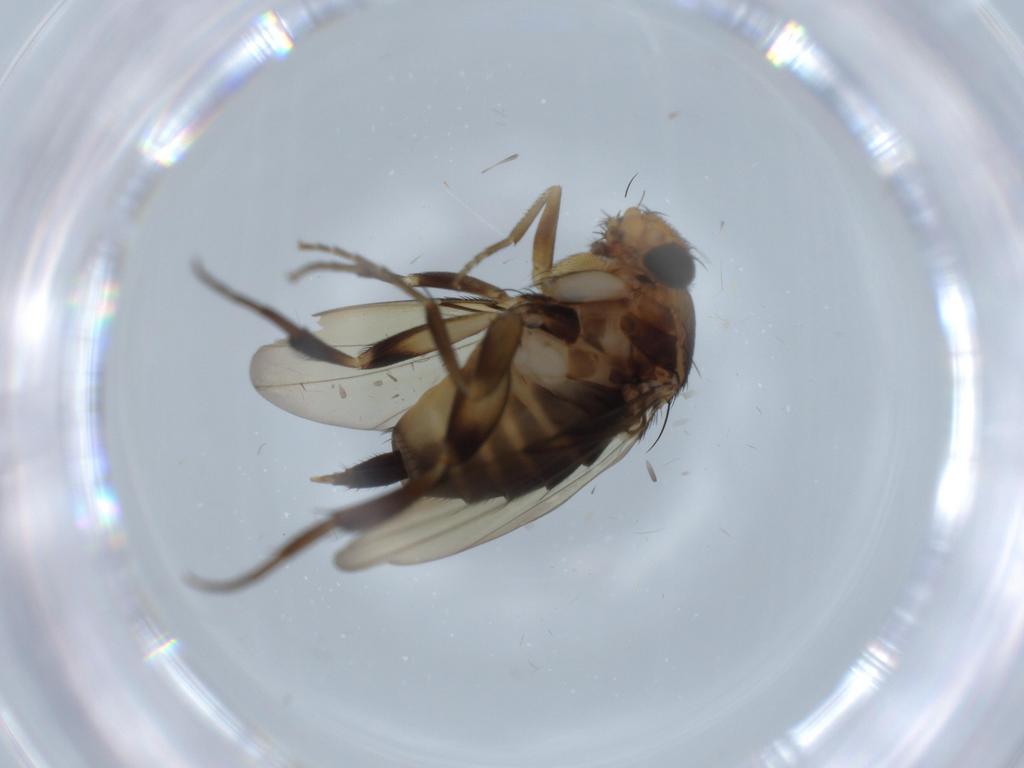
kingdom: Animalia
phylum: Arthropoda
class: Insecta
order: Diptera
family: Phoridae
